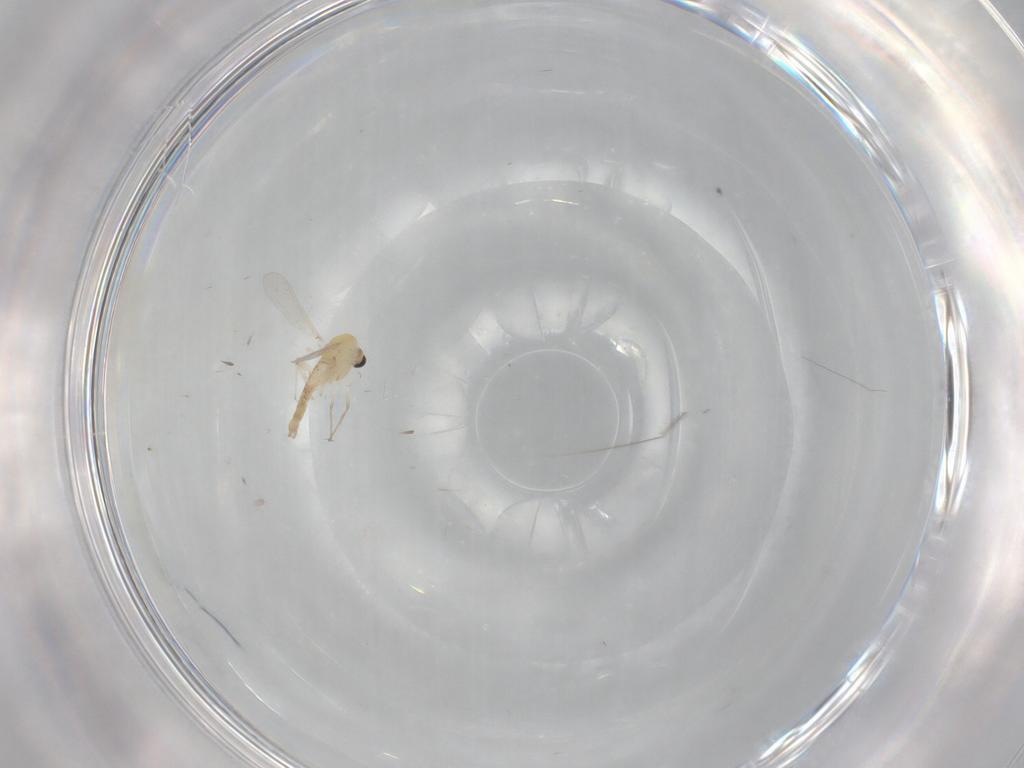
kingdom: Animalia
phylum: Arthropoda
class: Insecta
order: Diptera
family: Chironomidae
